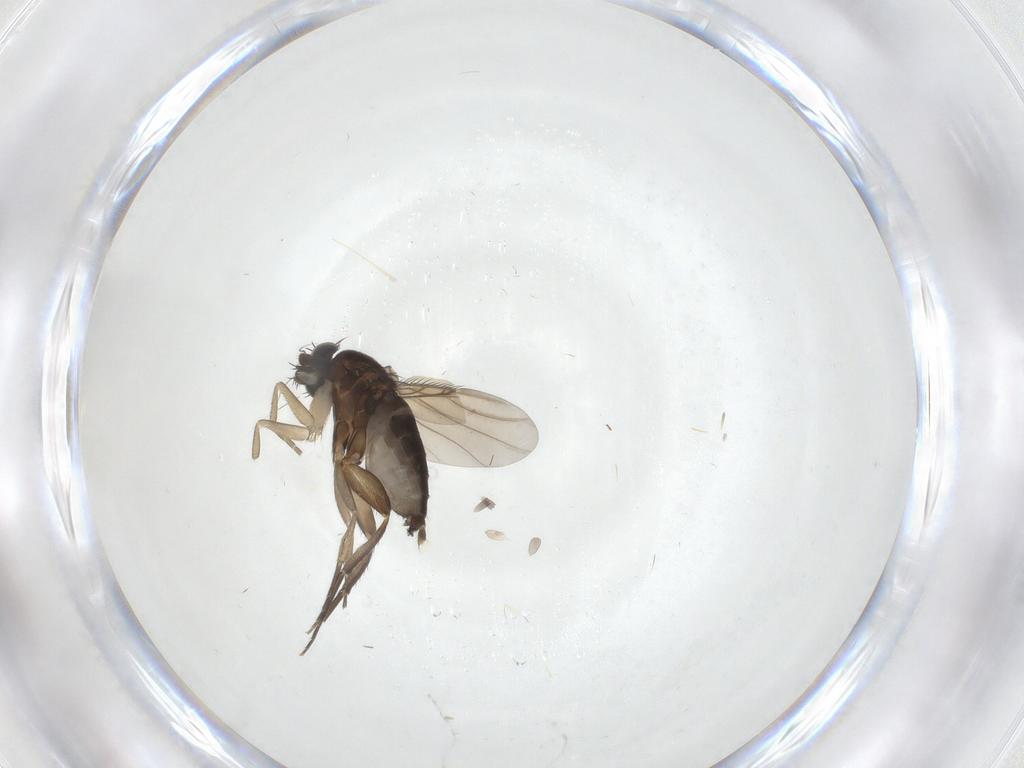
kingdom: Animalia
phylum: Arthropoda
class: Insecta
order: Diptera
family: Phoridae
